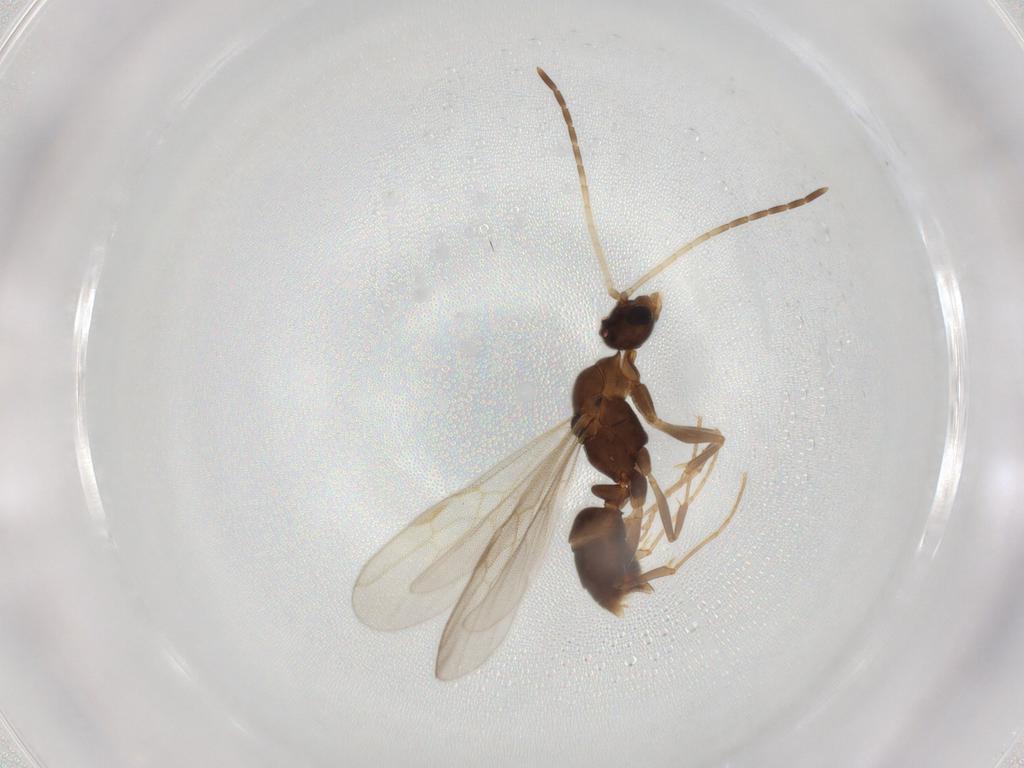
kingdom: Animalia
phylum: Arthropoda
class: Insecta
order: Hymenoptera
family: Formicidae
